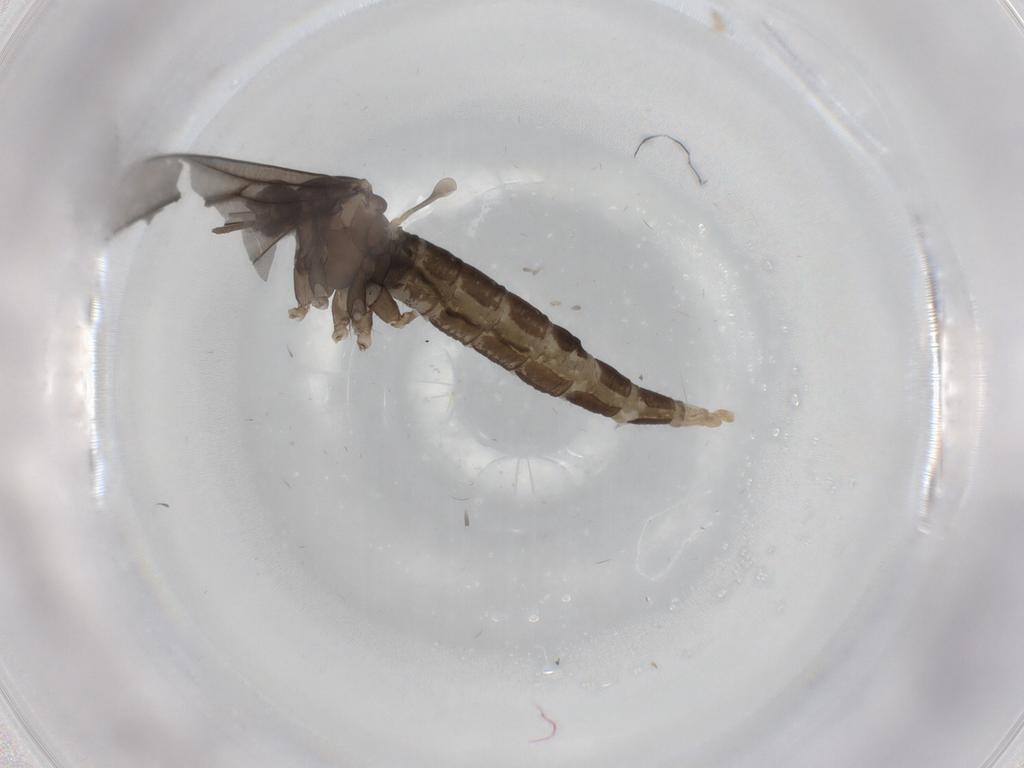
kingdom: Animalia
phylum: Arthropoda
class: Insecta
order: Diptera
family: Cecidomyiidae
